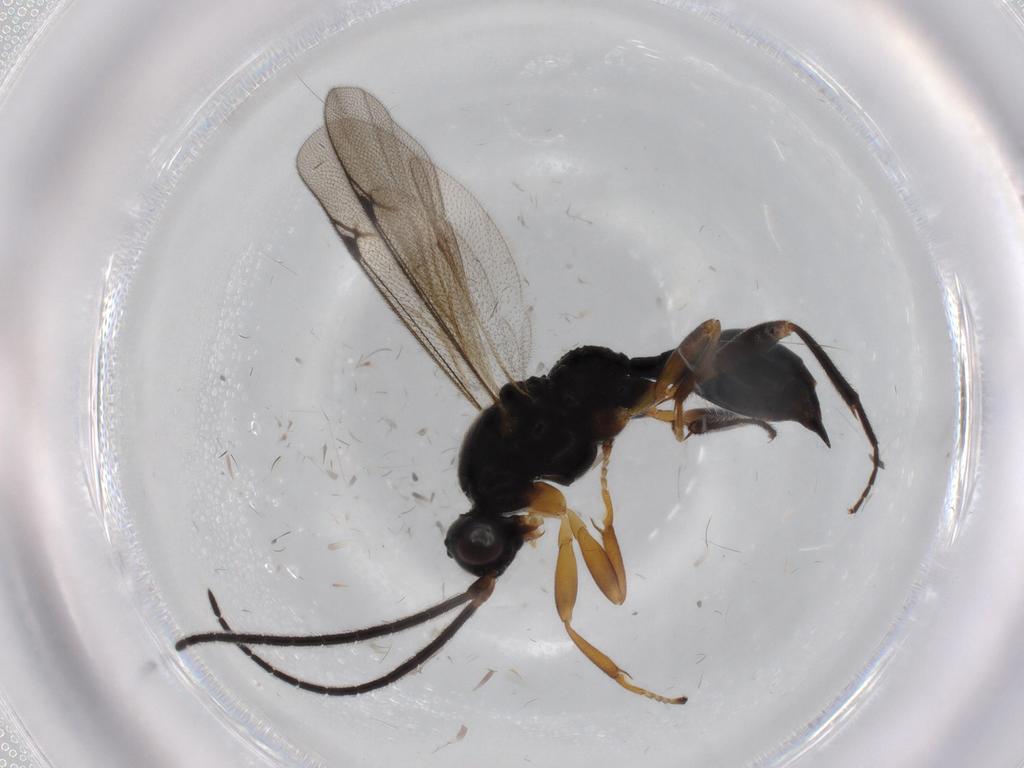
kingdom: Animalia
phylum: Arthropoda
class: Insecta
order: Hymenoptera
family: Formicidae
